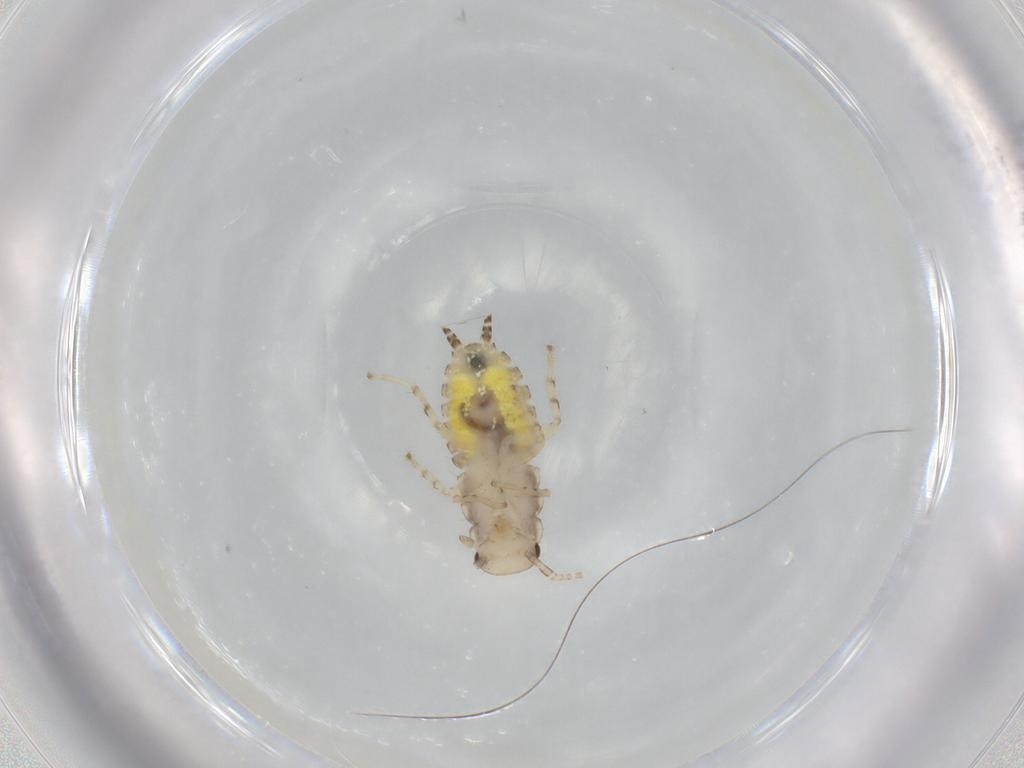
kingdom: Animalia
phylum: Arthropoda
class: Insecta
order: Blattodea
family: Ectobiidae
